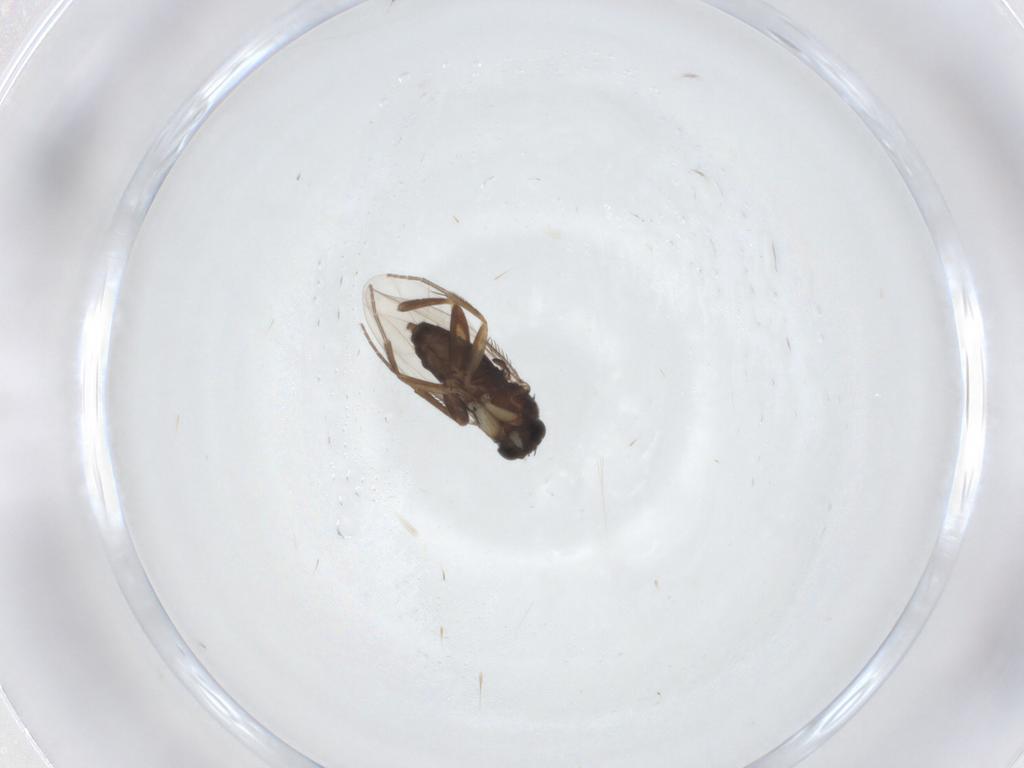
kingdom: Animalia
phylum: Arthropoda
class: Insecta
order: Diptera
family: Phoridae
